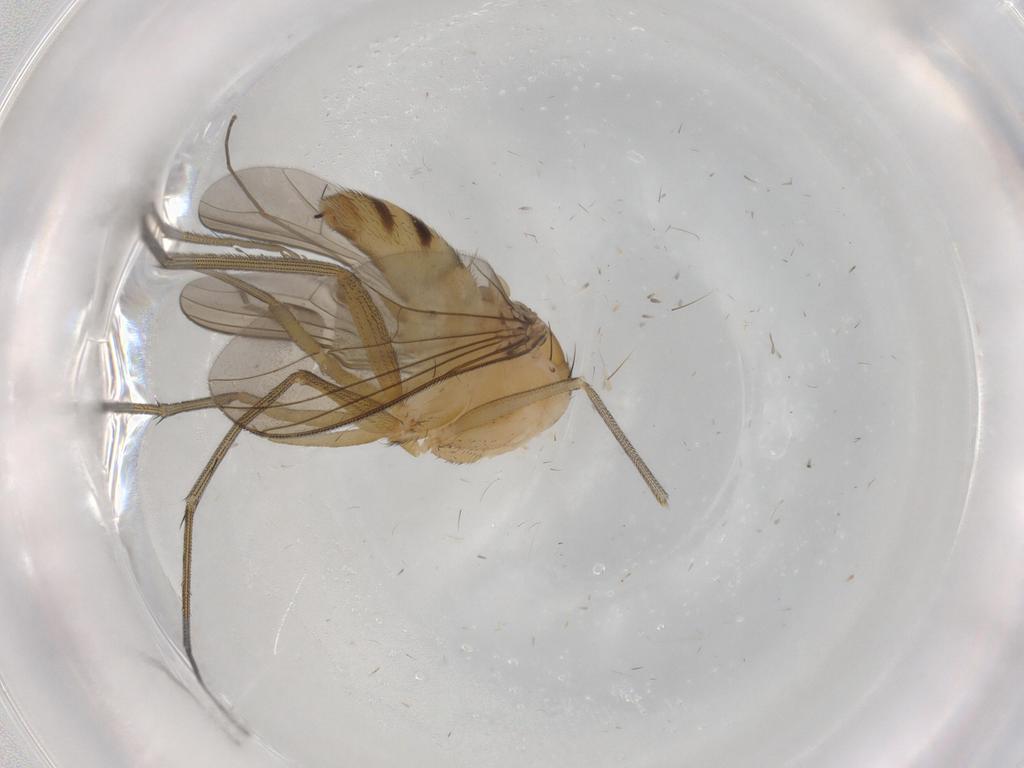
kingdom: Animalia
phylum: Arthropoda
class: Insecta
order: Diptera
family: Dolichopodidae
